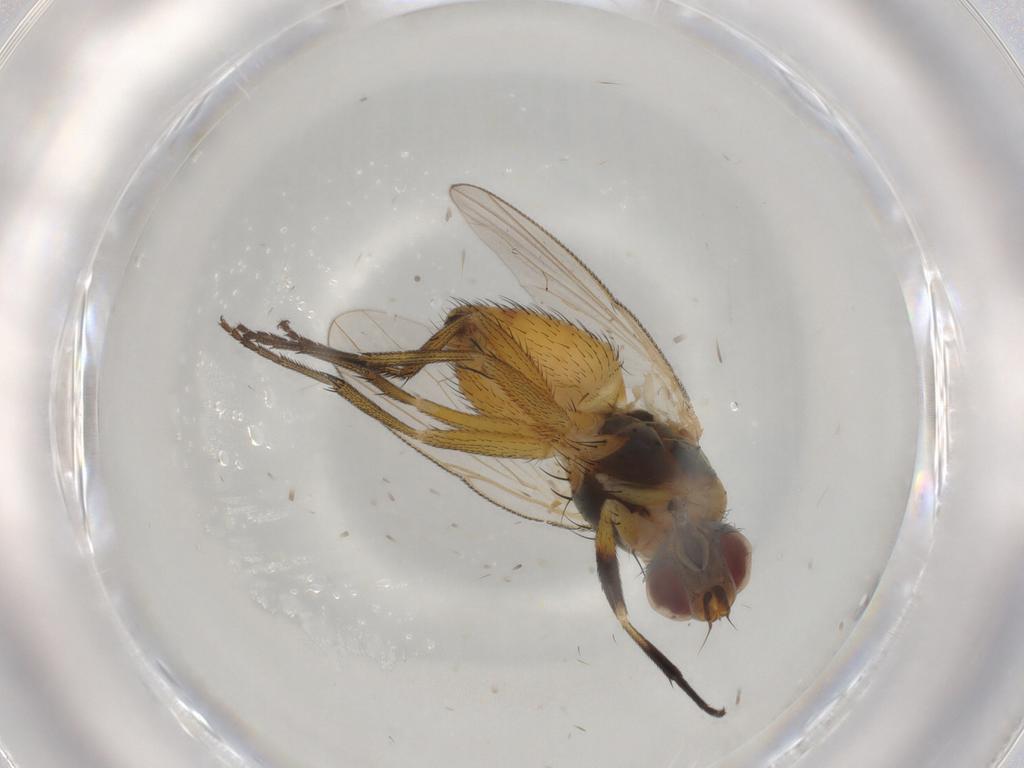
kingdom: Animalia
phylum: Arthropoda
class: Insecta
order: Diptera
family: Muscidae
